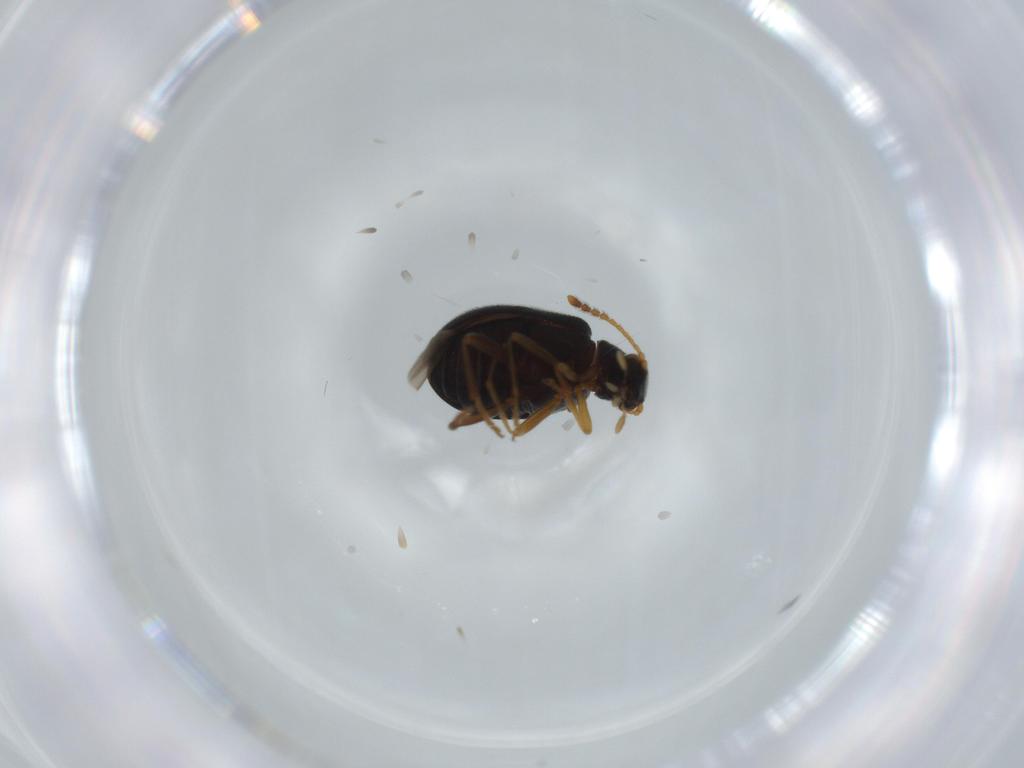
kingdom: Animalia
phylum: Arthropoda
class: Insecta
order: Coleoptera
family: Aderidae
